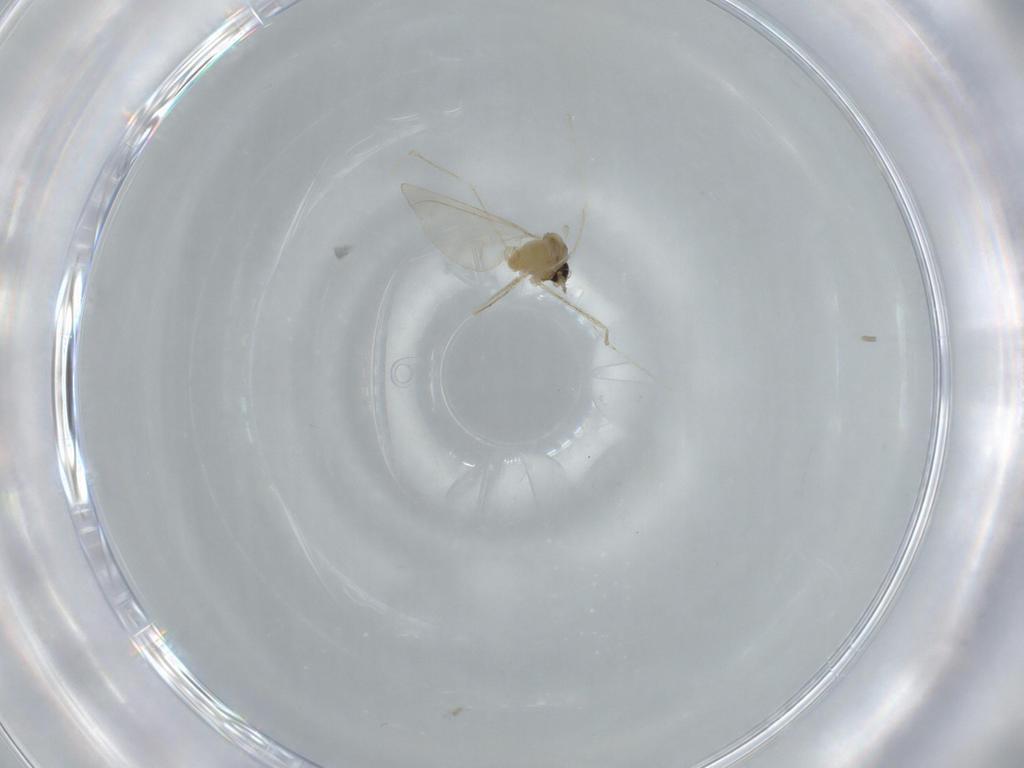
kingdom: Animalia
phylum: Arthropoda
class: Insecta
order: Diptera
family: Cecidomyiidae
